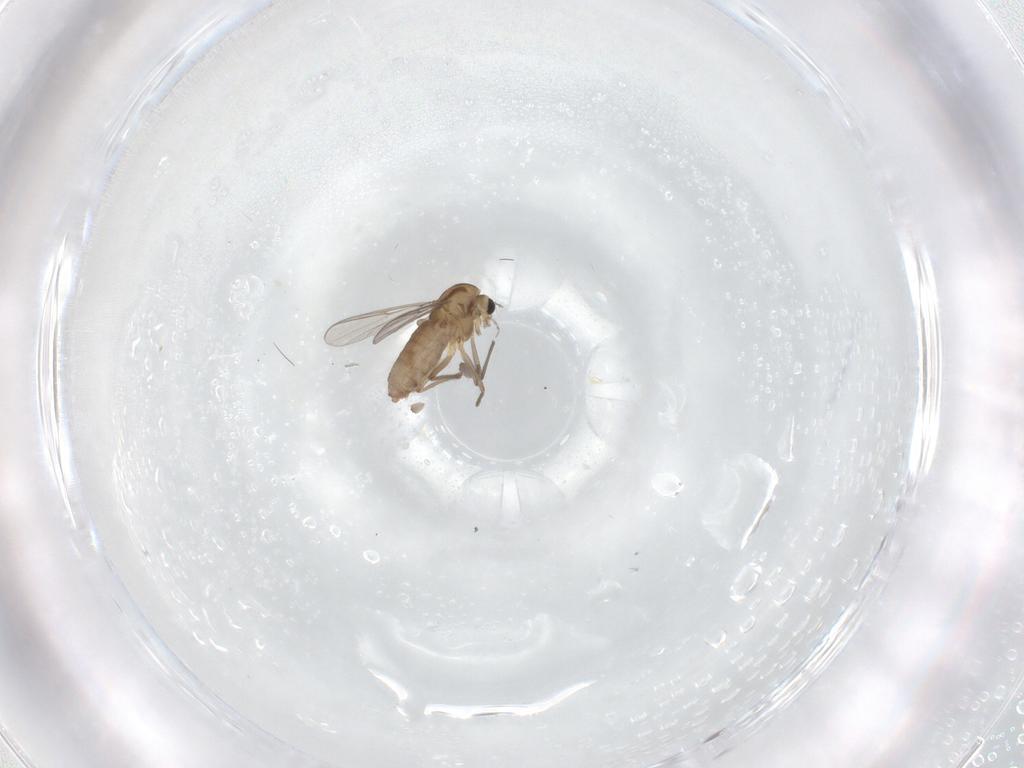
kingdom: Animalia
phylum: Arthropoda
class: Insecta
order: Diptera
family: Chironomidae
